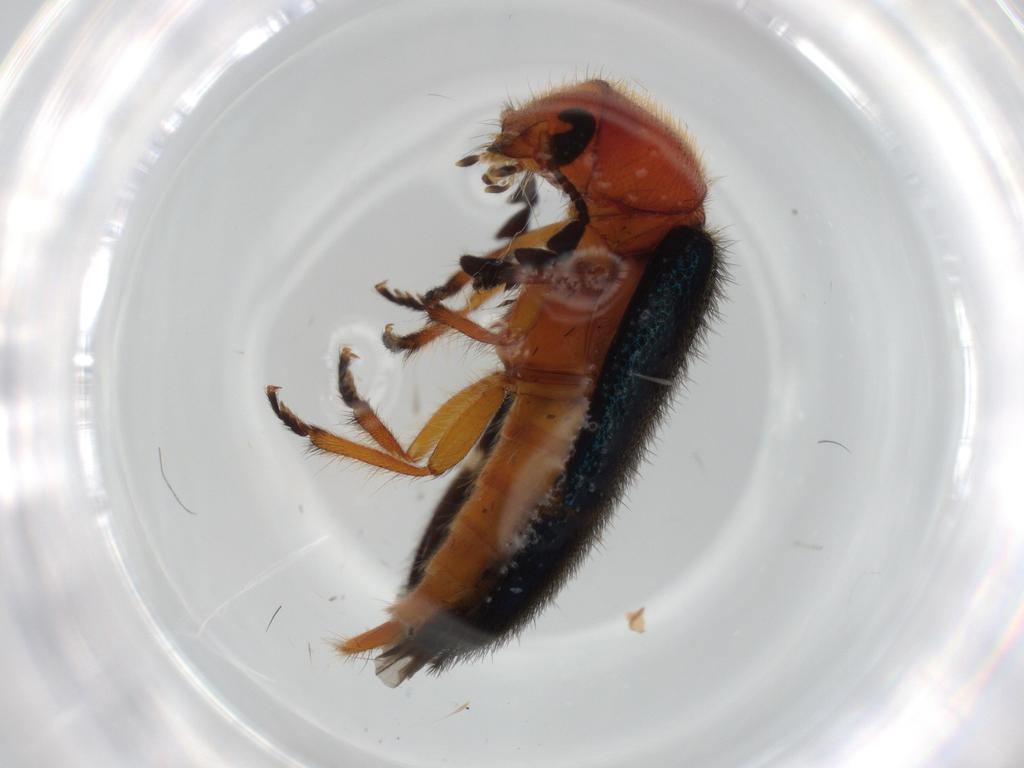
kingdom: Animalia
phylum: Arthropoda
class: Insecta
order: Coleoptera
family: Cleridae
